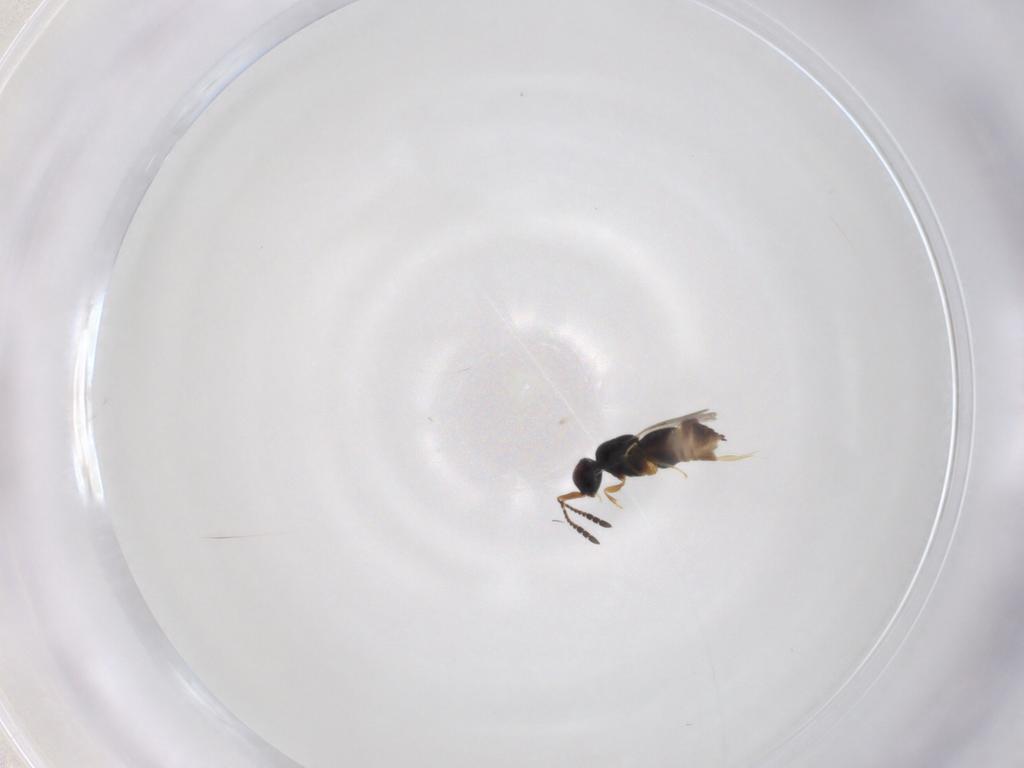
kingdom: Animalia
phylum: Arthropoda
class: Insecta
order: Hymenoptera
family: Ceraphronidae
